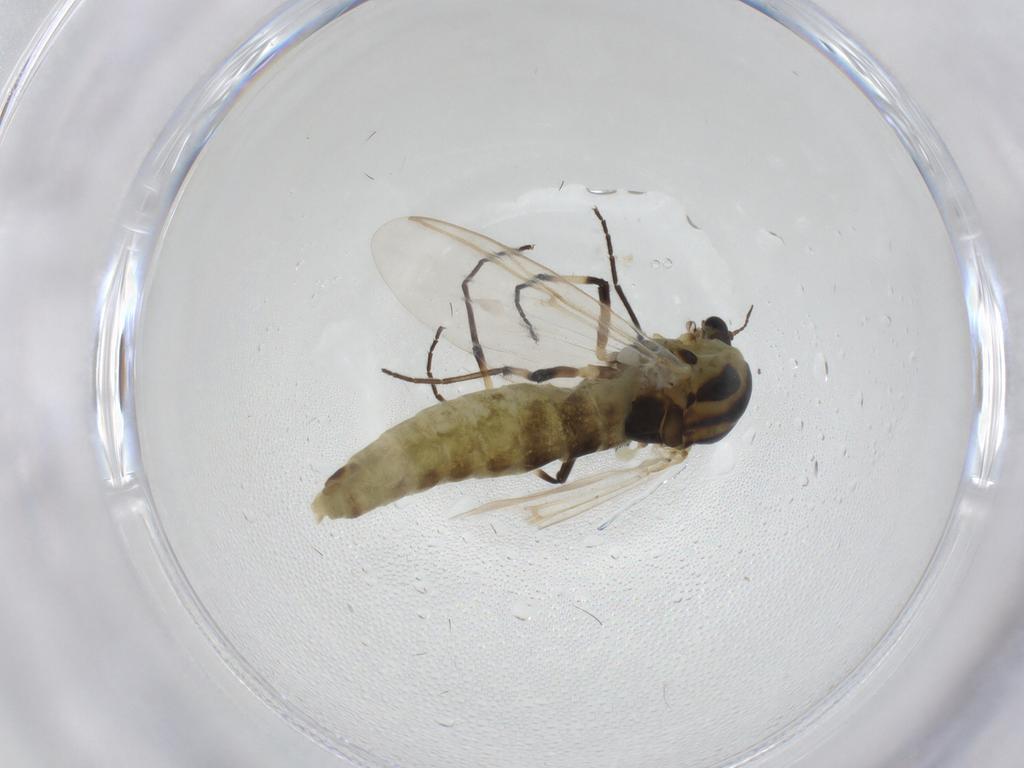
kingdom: Animalia
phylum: Arthropoda
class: Insecta
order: Diptera
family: Chironomidae
